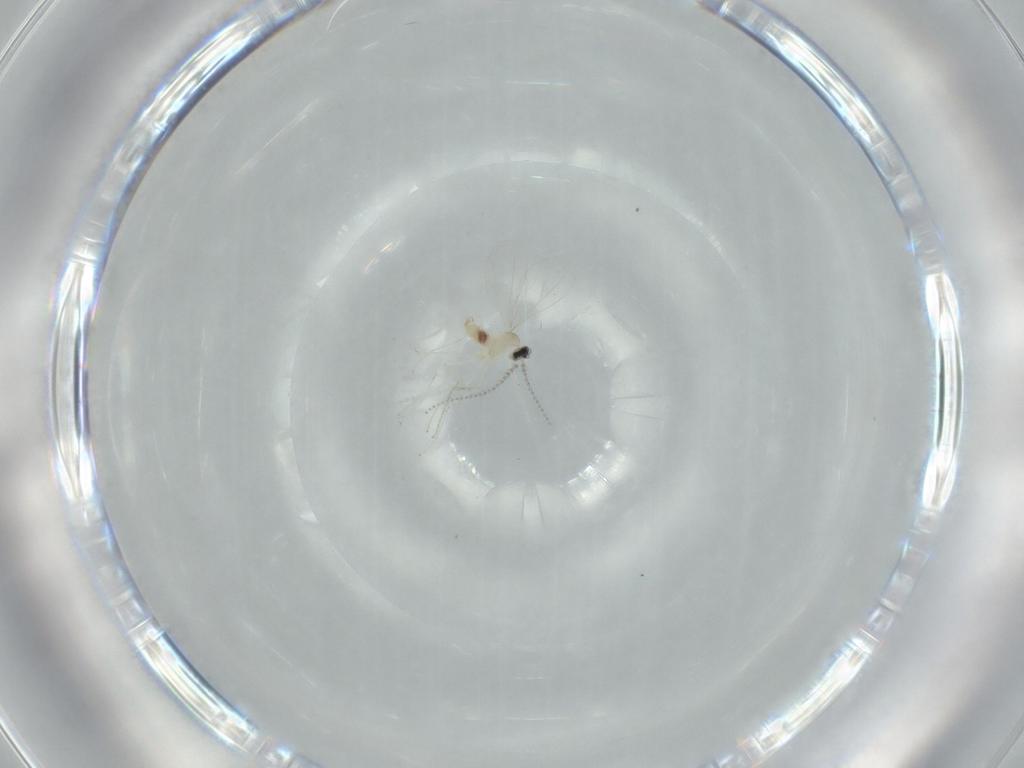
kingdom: Animalia
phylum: Arthropoda
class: Insecta
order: Diptera
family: Cecidomyiidae
